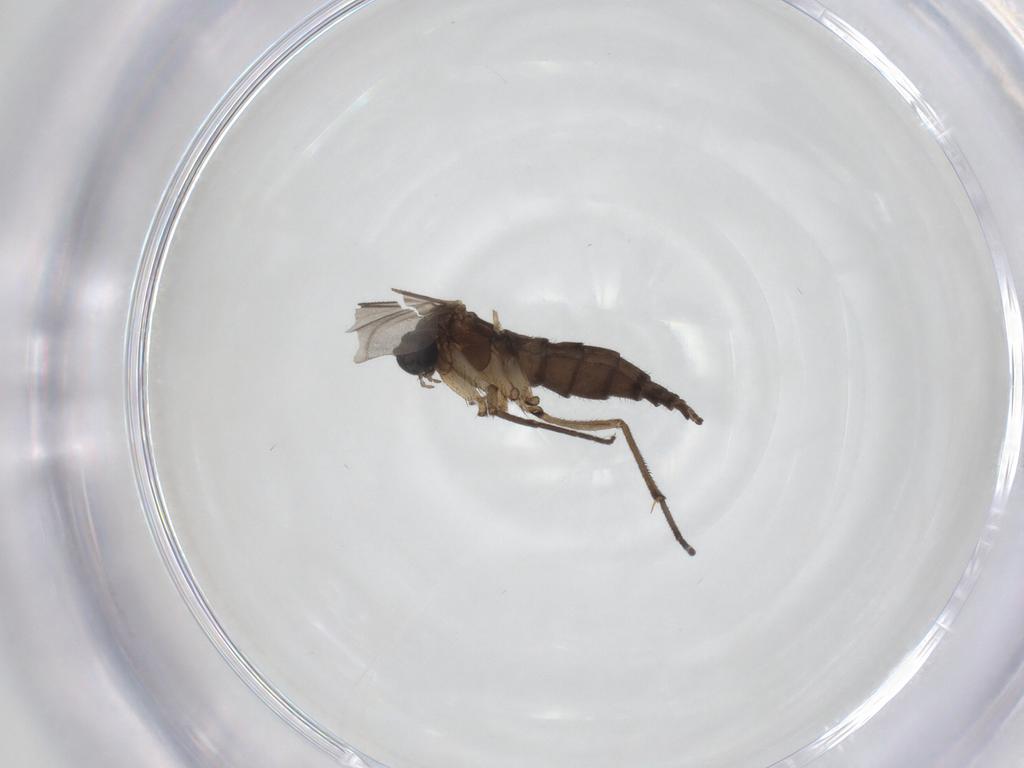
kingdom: Animalia
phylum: Arthropoda
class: Insecta
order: Diptera
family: Sciaridae
